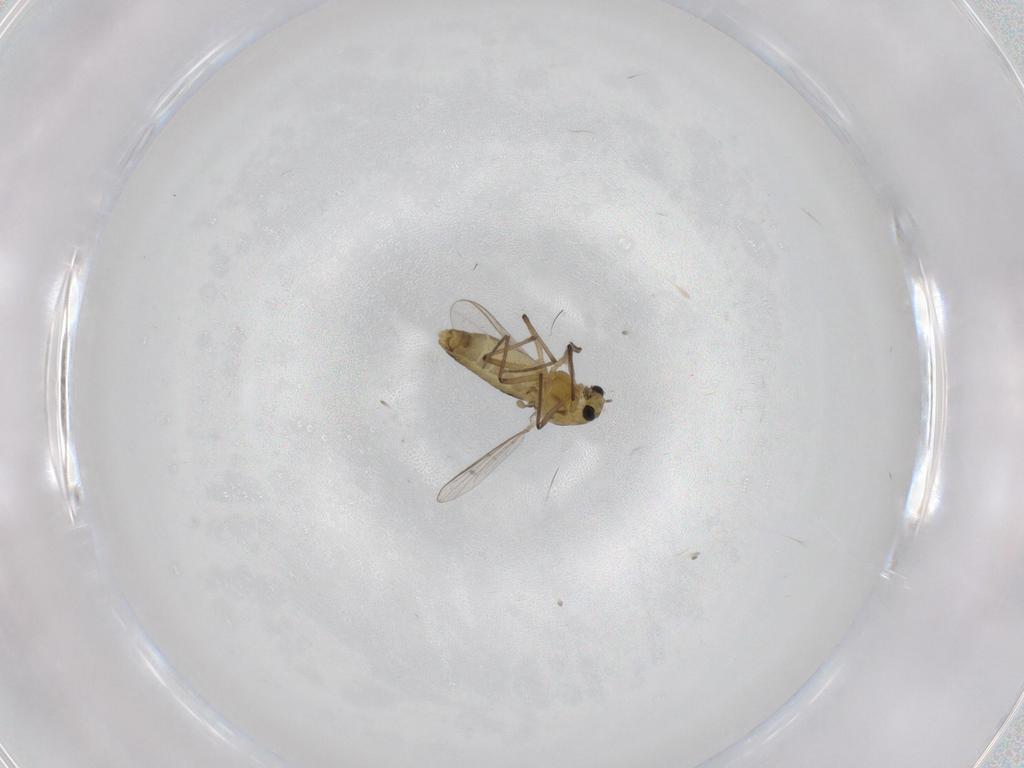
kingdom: Animalia
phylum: Arthropoda
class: Insecta
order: Diptera
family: Chironomidae
